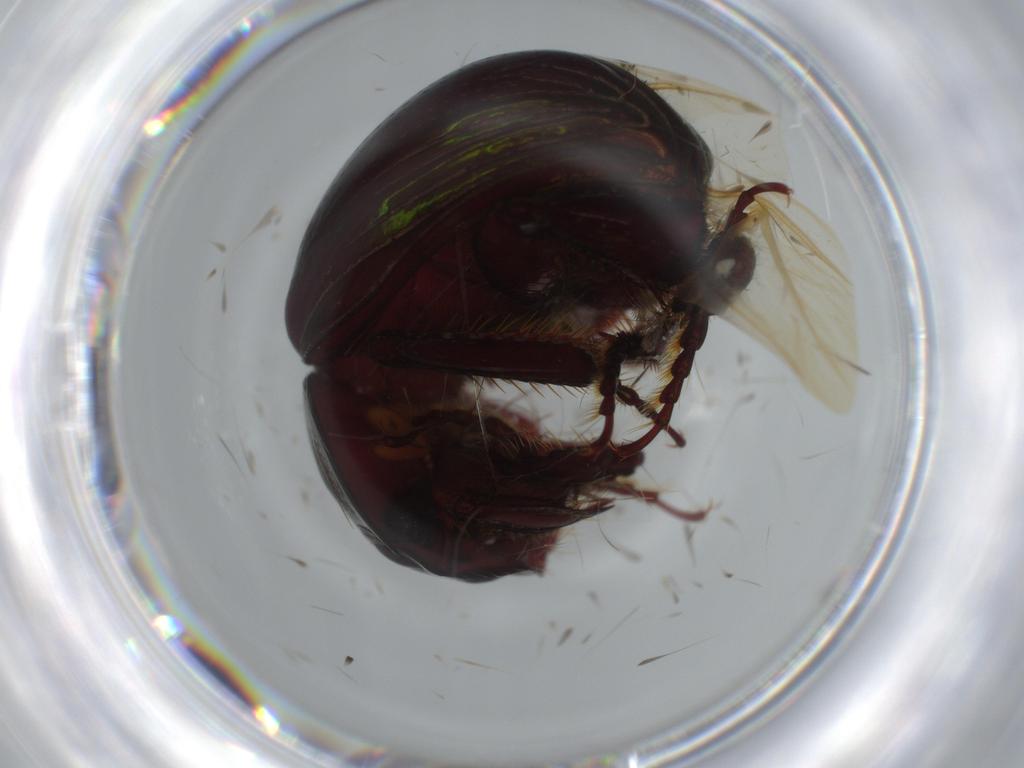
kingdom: Animalia
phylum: Arthropoda
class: Insecta
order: Coleoptera
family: Hybosoridae
